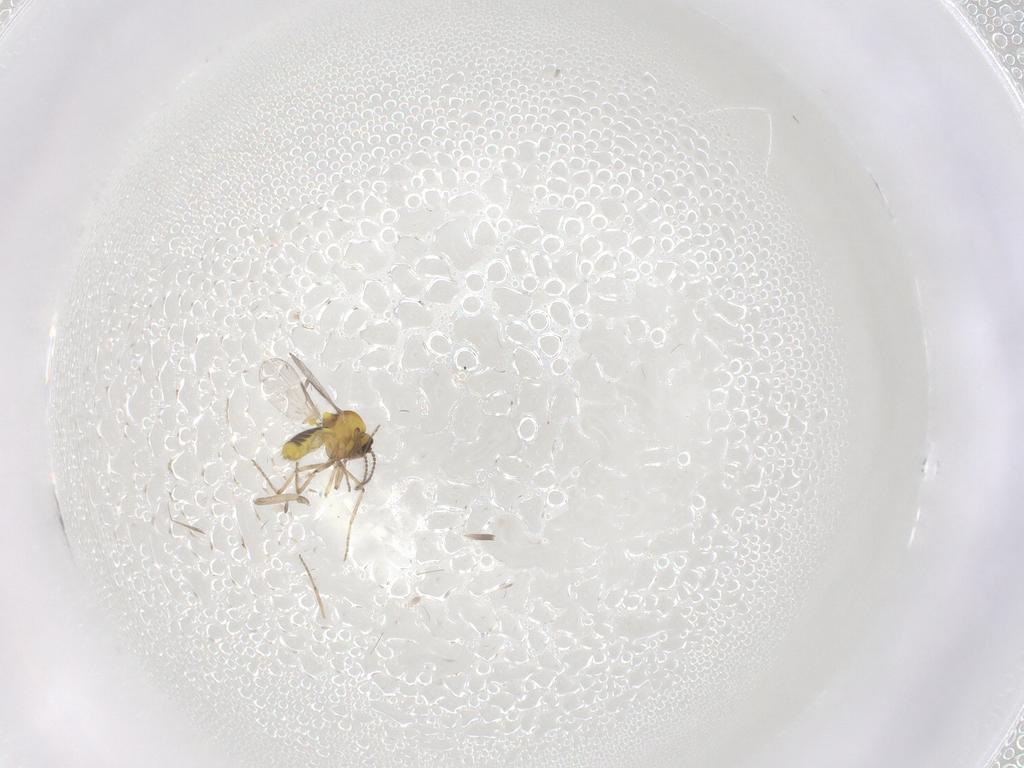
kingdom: Animalia
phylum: Arthropoda
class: Insecta
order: Diptera
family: Ceratopogonidae
